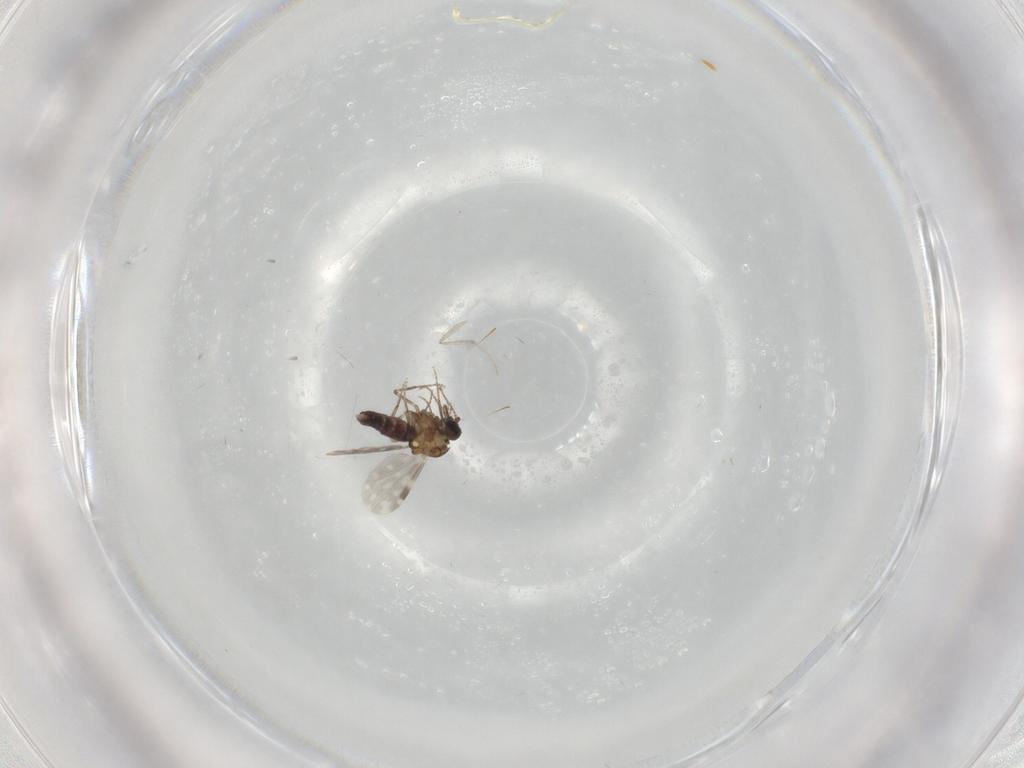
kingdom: Animalia
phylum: Arthropoda
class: Insecta
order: Diptera
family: Ceratopogonidae
